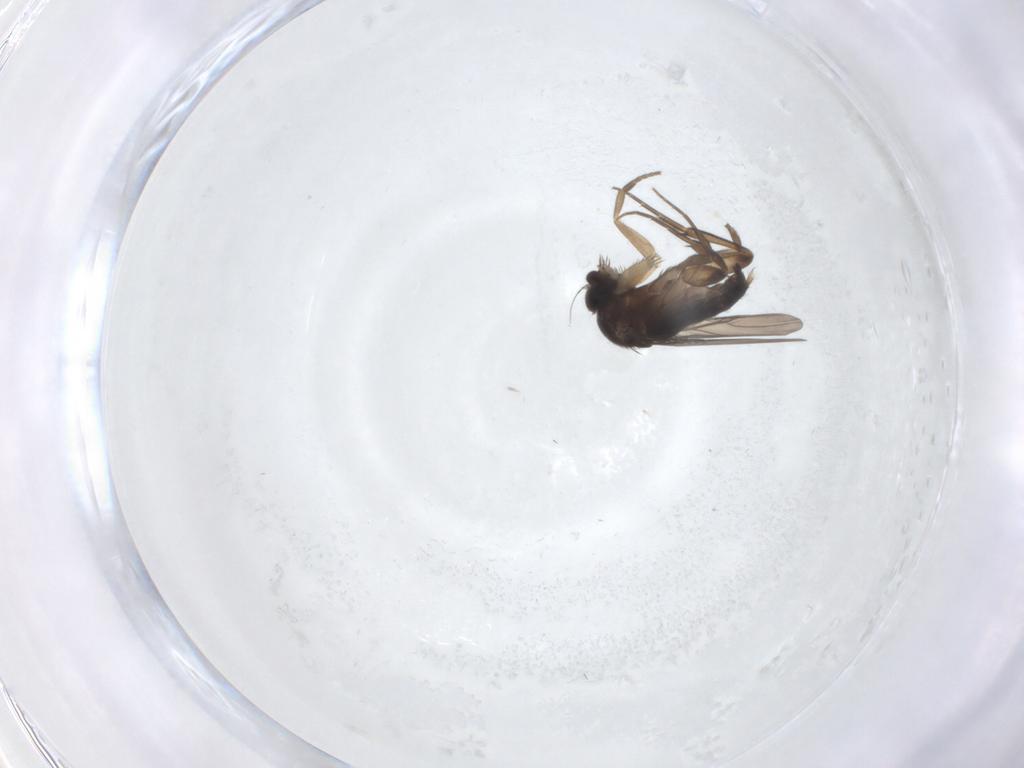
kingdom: Animalia
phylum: Arthropoda
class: Insecta
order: Diptera
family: Phoridae
